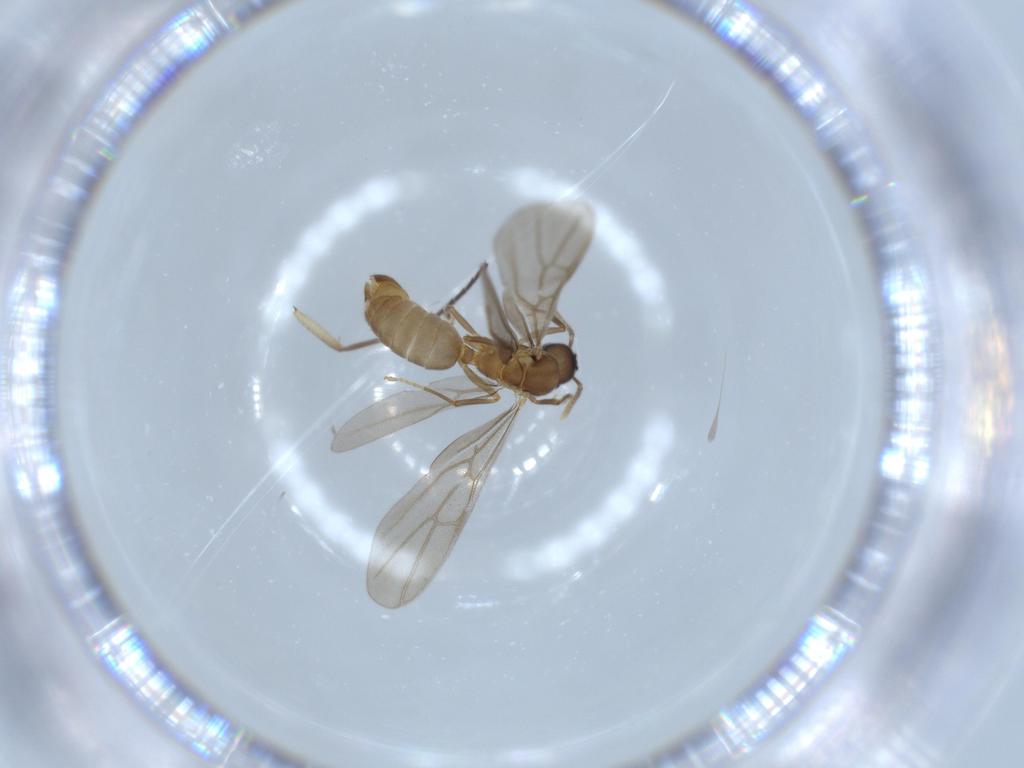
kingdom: Animalia
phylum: Arthropoda
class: Insecta
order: Hymenoptera
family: Formicidae
